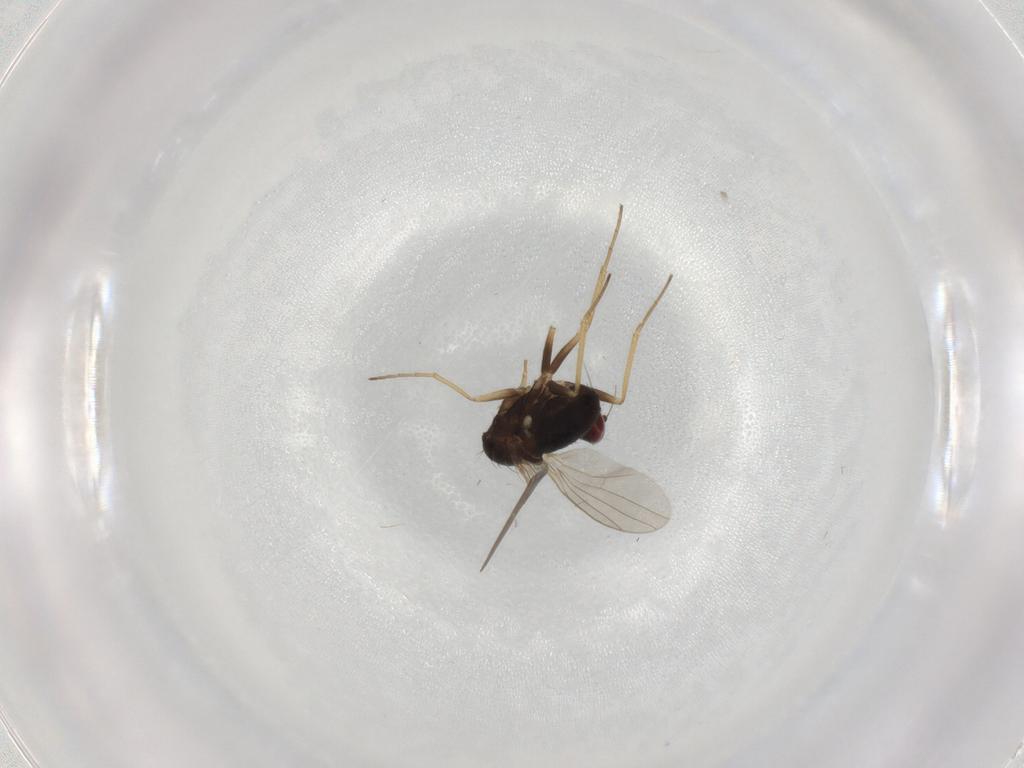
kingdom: Animalia
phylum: Arthropoda
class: Insecta
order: Diptera
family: Dolichopodidae
